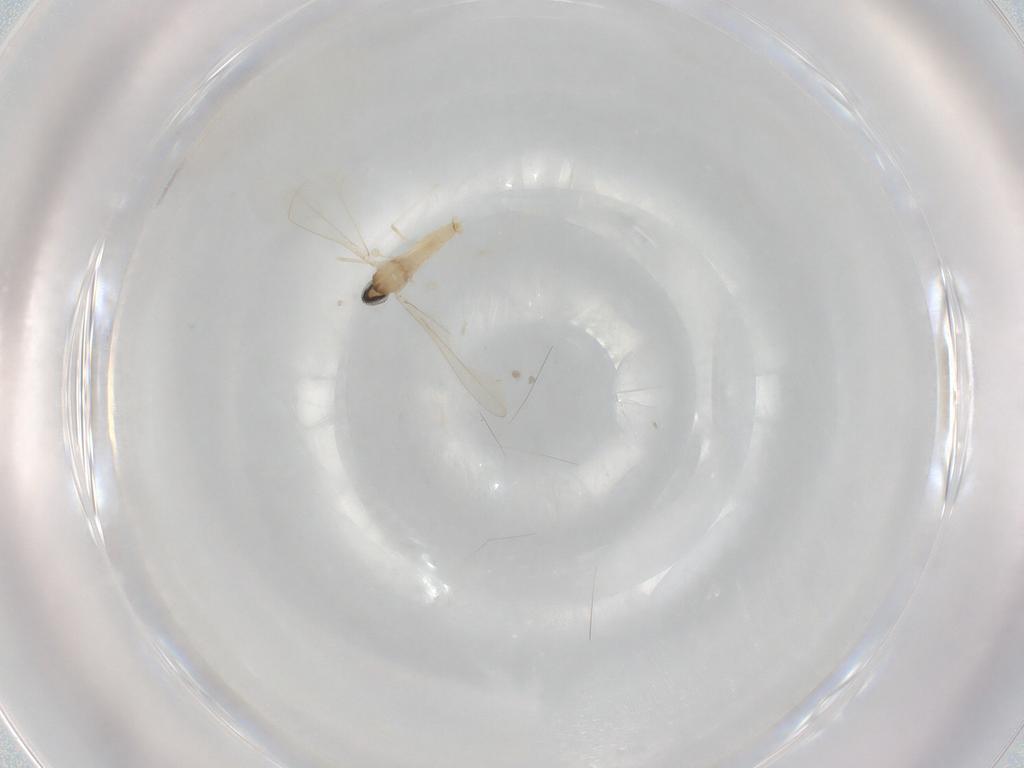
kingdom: Animalia
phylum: Arthropoda
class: Insecta
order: Diptera
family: Cecidomyiidae
